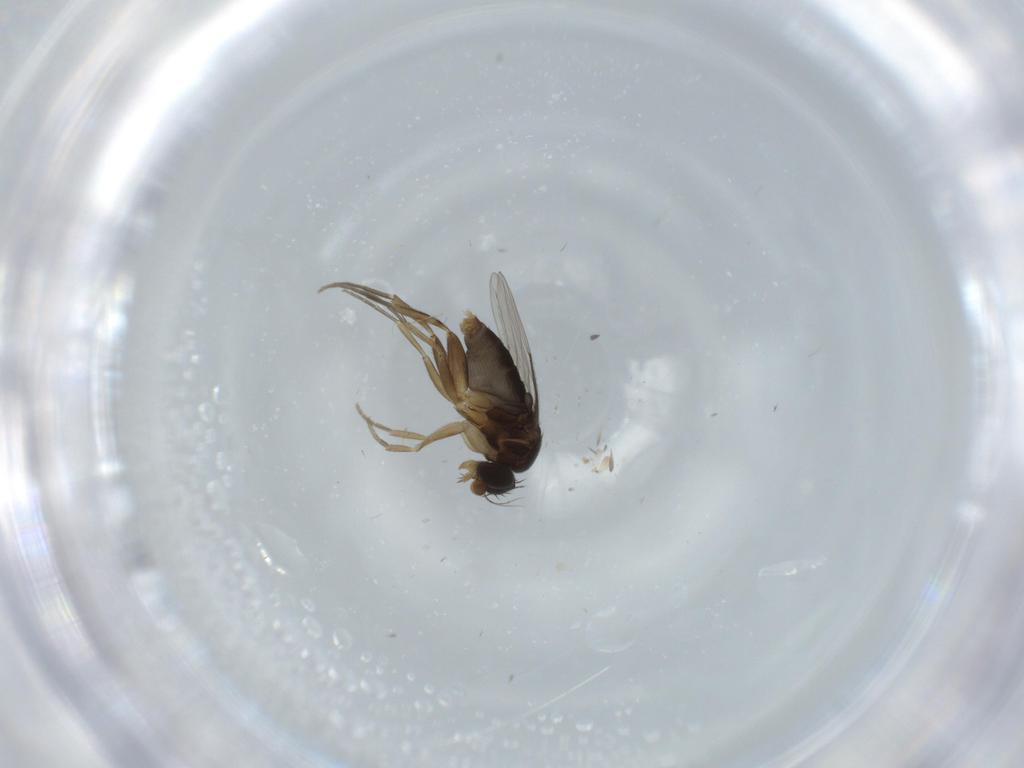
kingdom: Animalia
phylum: Arthropoda
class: Insecta
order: Diptera
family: Phoridae
